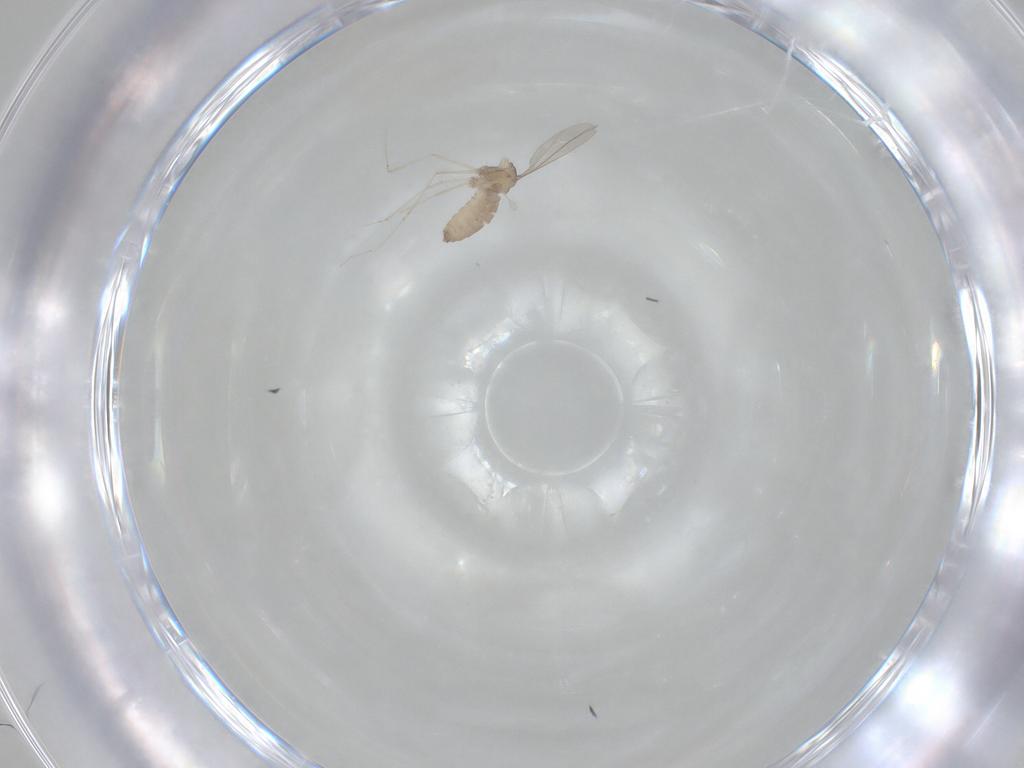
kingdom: Animalia
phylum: Arthropoda
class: Insecta
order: Diptera
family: Cecidomyiidae
